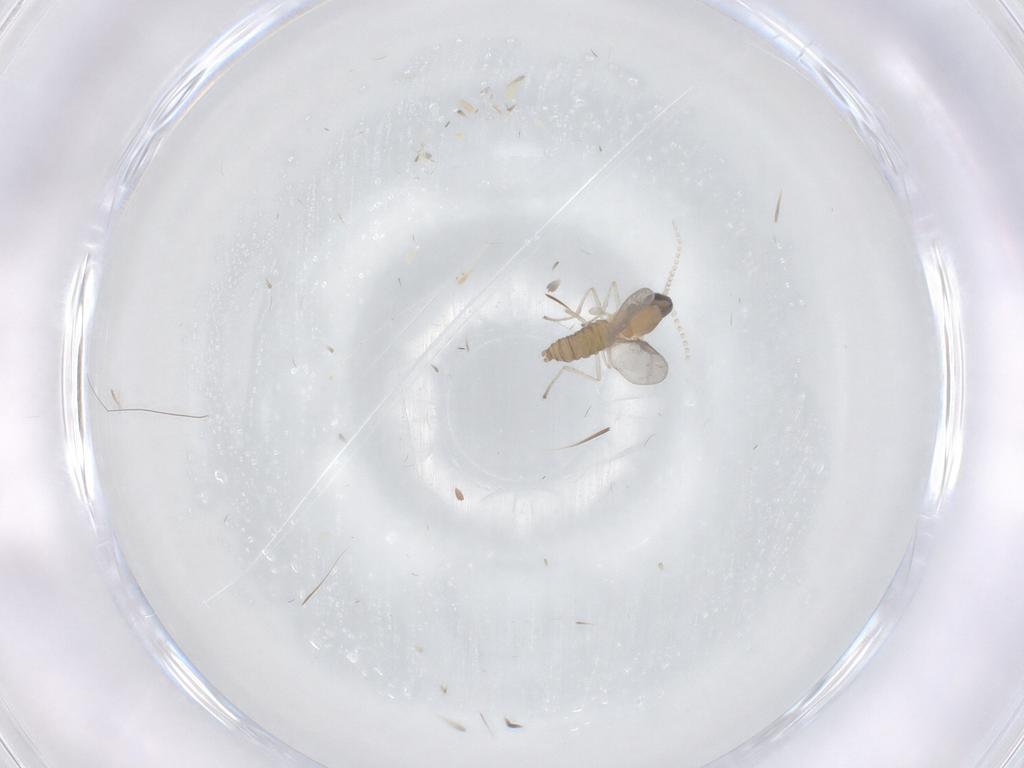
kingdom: Animalia
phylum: Arthropoda
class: Insecta
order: Diptera
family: Cecidomyiidae
